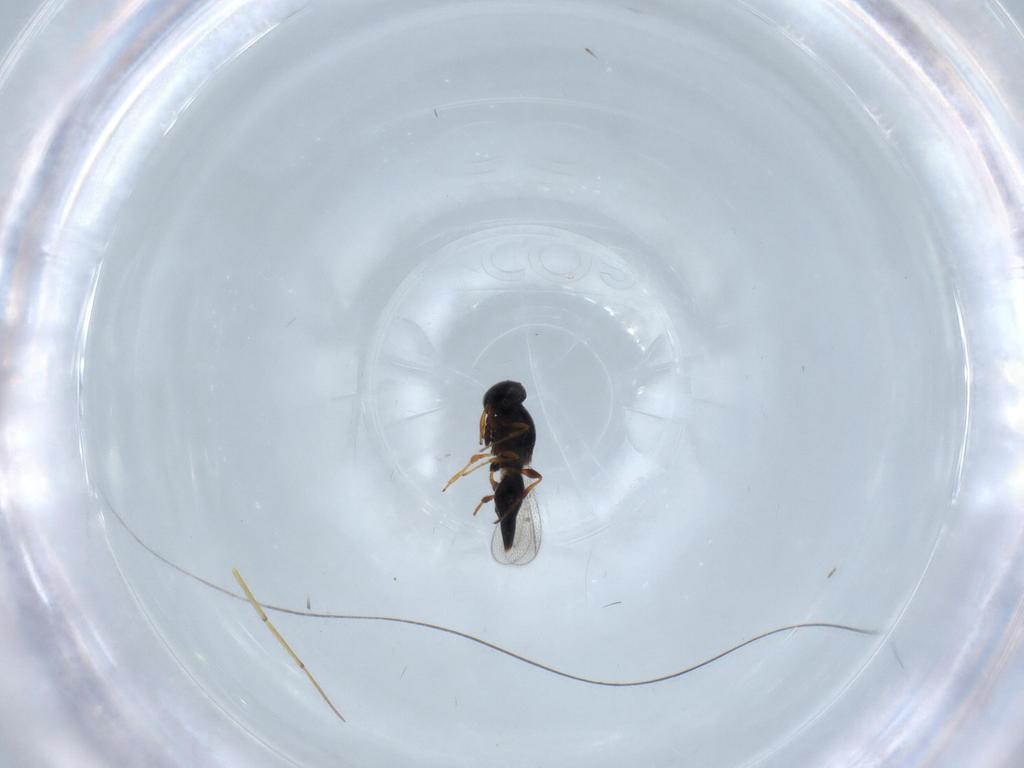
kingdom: Animalia
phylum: Arthropoda
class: Insecta
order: Hymenoptera
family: Platygastridae
